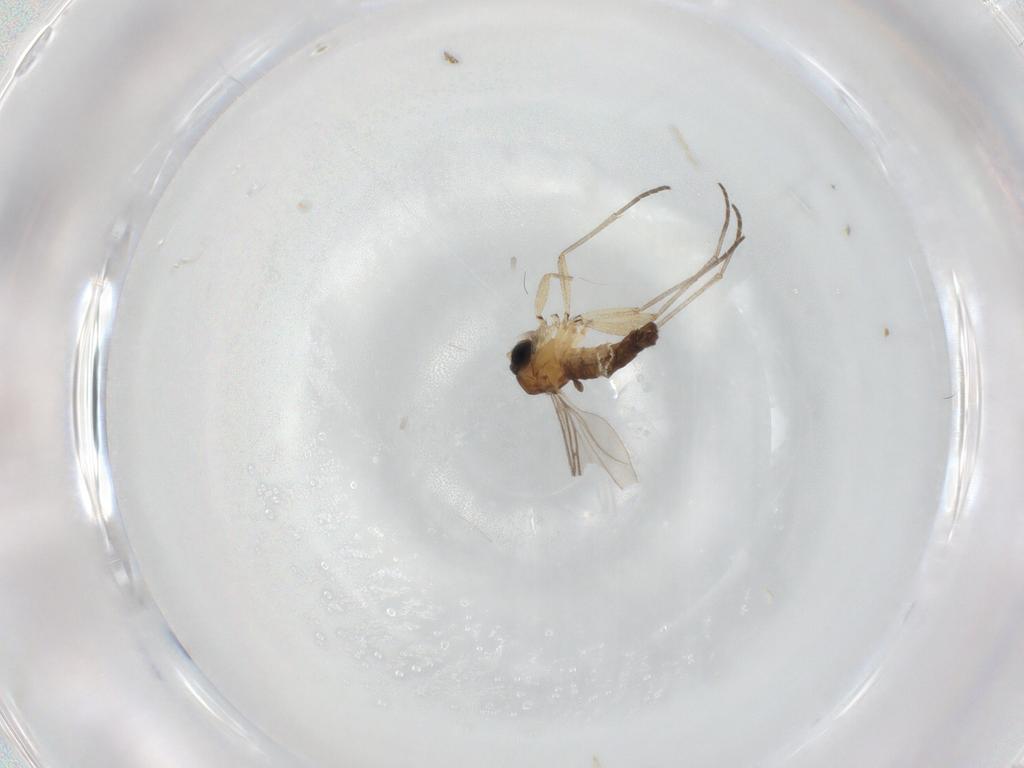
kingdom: Animalia
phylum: Arthropoda
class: Insecta
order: Diptera
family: Sciaridae
